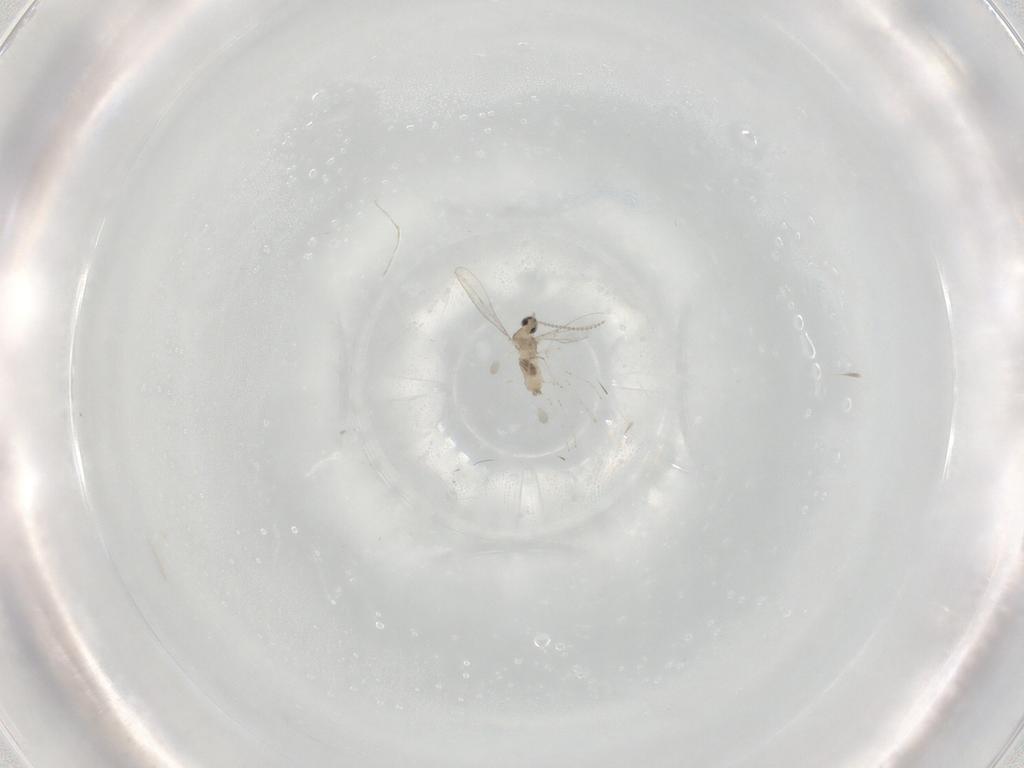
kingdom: Animalia
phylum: Arthropoda
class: Insecta
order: Diptera
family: Cecidomyiidae
